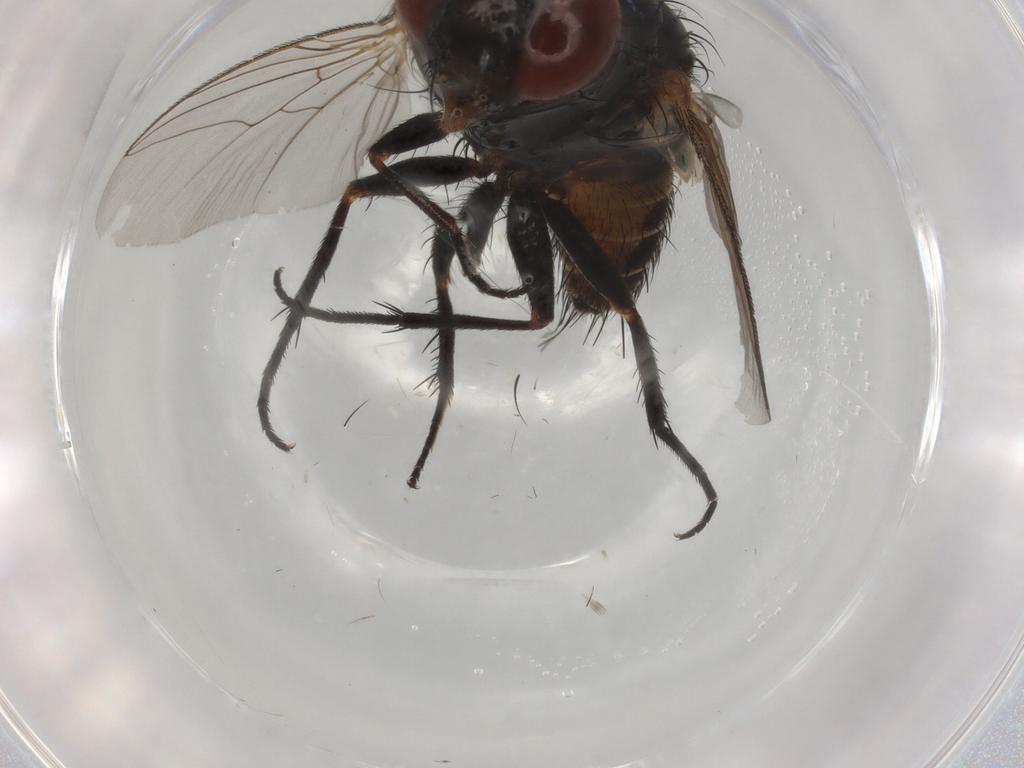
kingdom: Animalia
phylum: Arthropoda
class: Insecta
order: Diptera
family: Sarcophagidae
